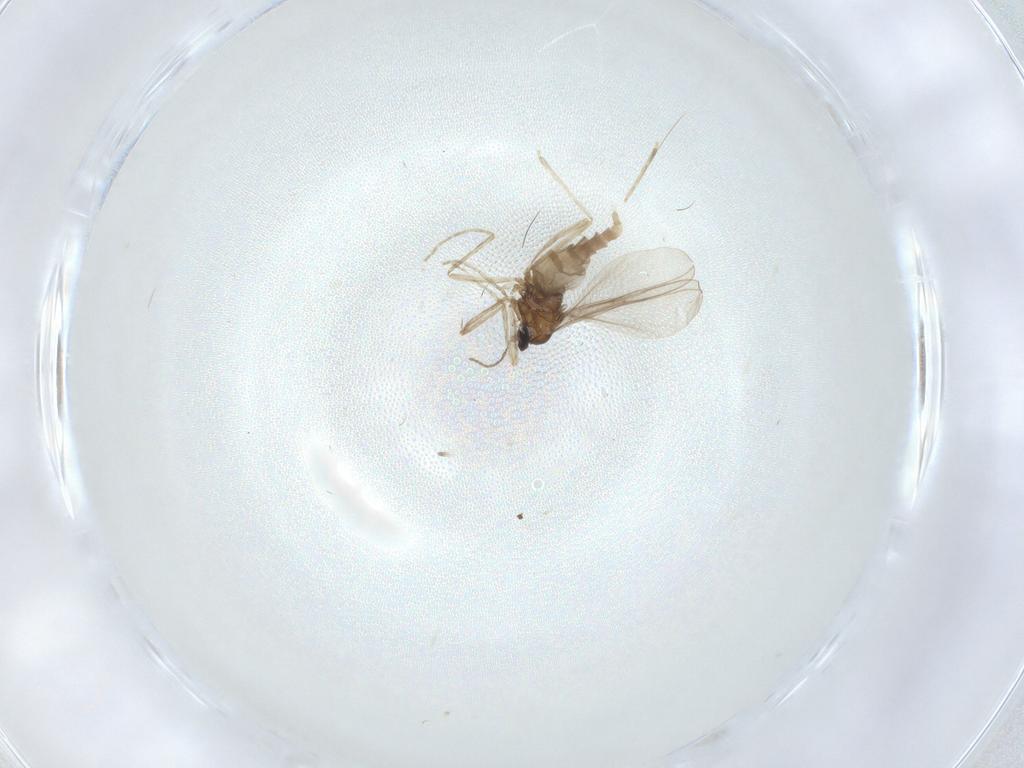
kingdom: Animalia
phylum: Arthropoda
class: Insecta
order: Diptera
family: Cecidomyiidae
